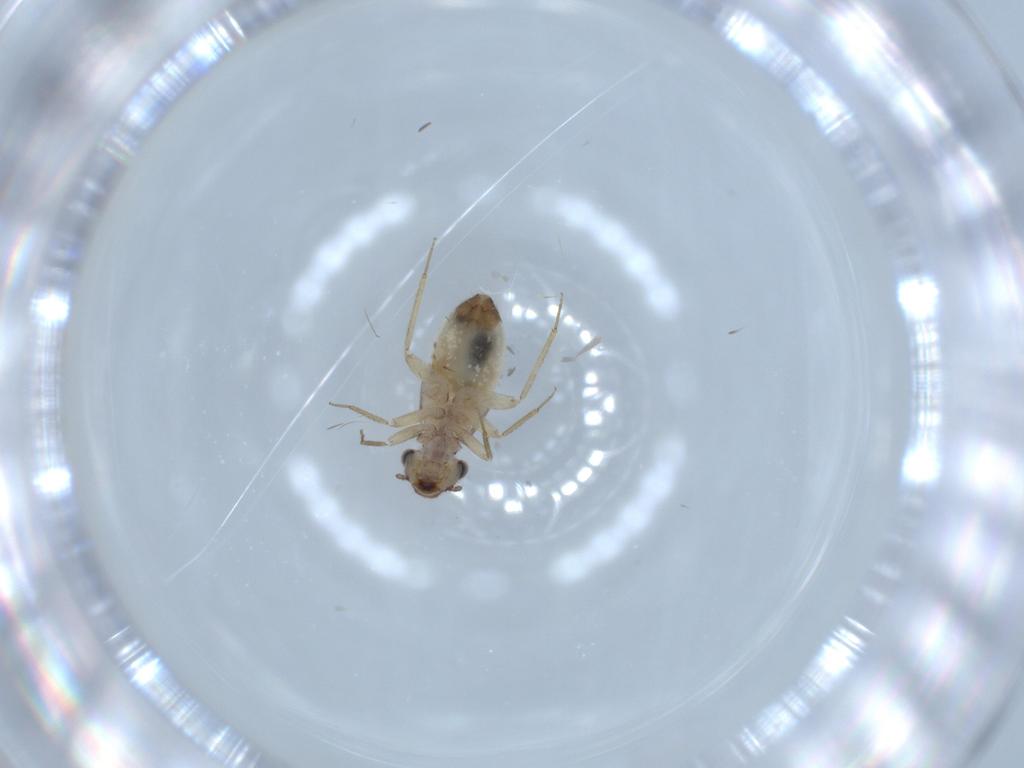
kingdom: Animalia
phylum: Arthropoda
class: Insecta
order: Psocodea
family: Lepidopsocidae
